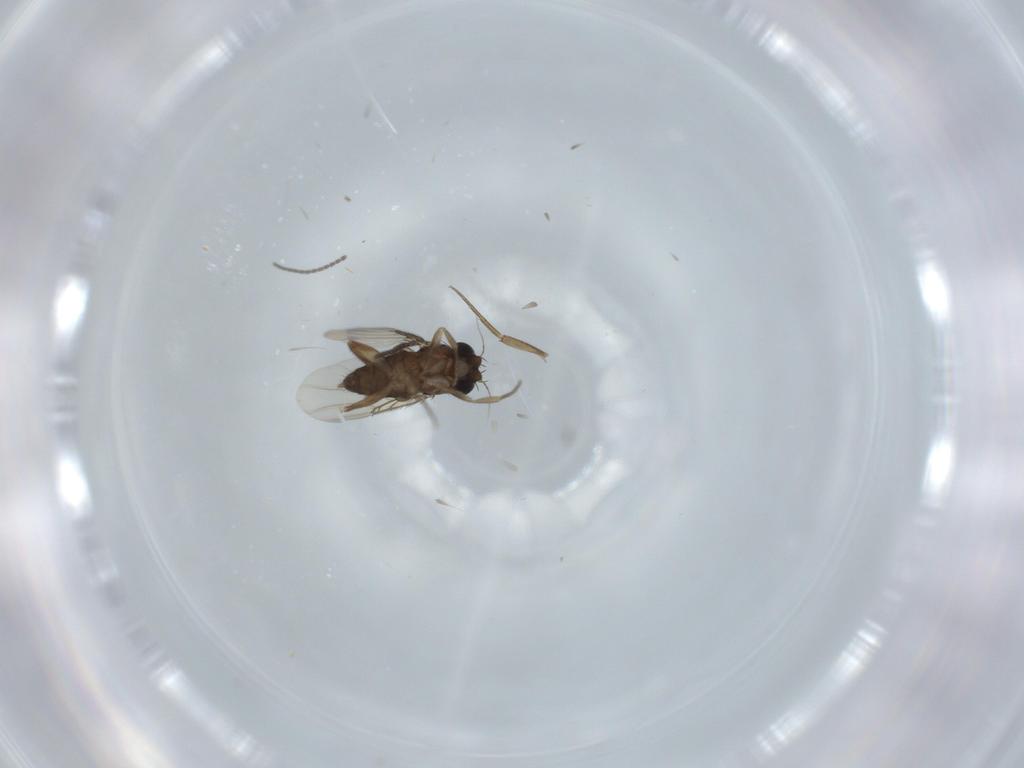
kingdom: Animalia
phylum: Arthropoda
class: Insecta
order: Diptera
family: Phoridae
